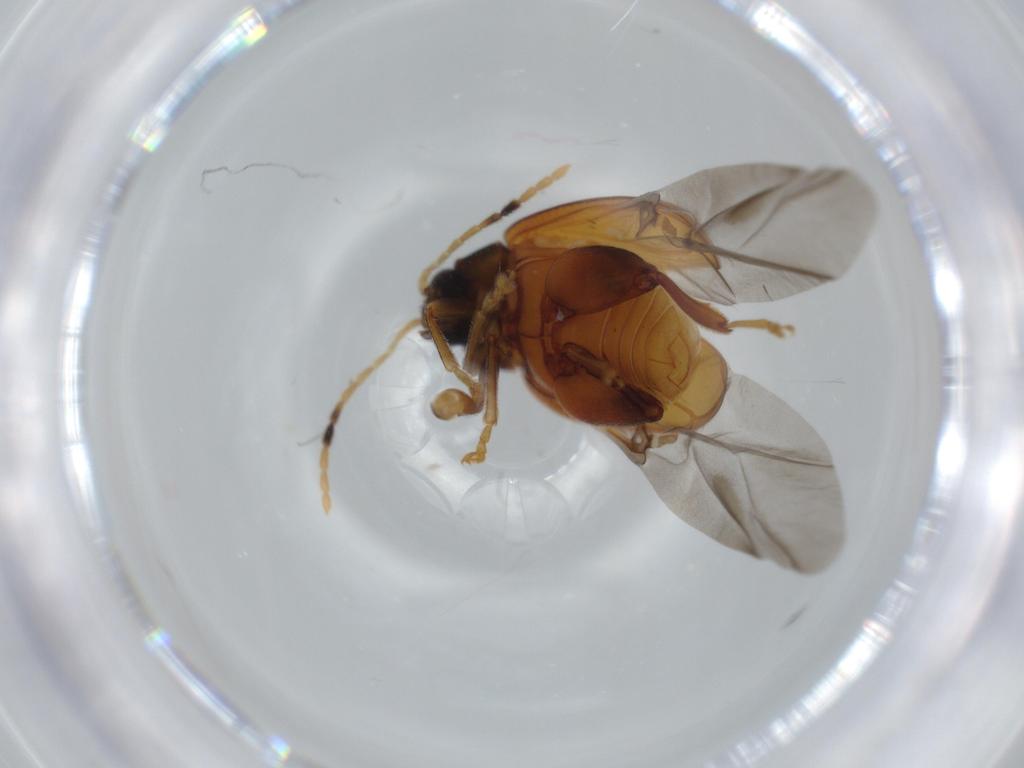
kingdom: Animalia
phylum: Arthropoda
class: Insecta
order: Coleoptera
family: Chrysomelidae
